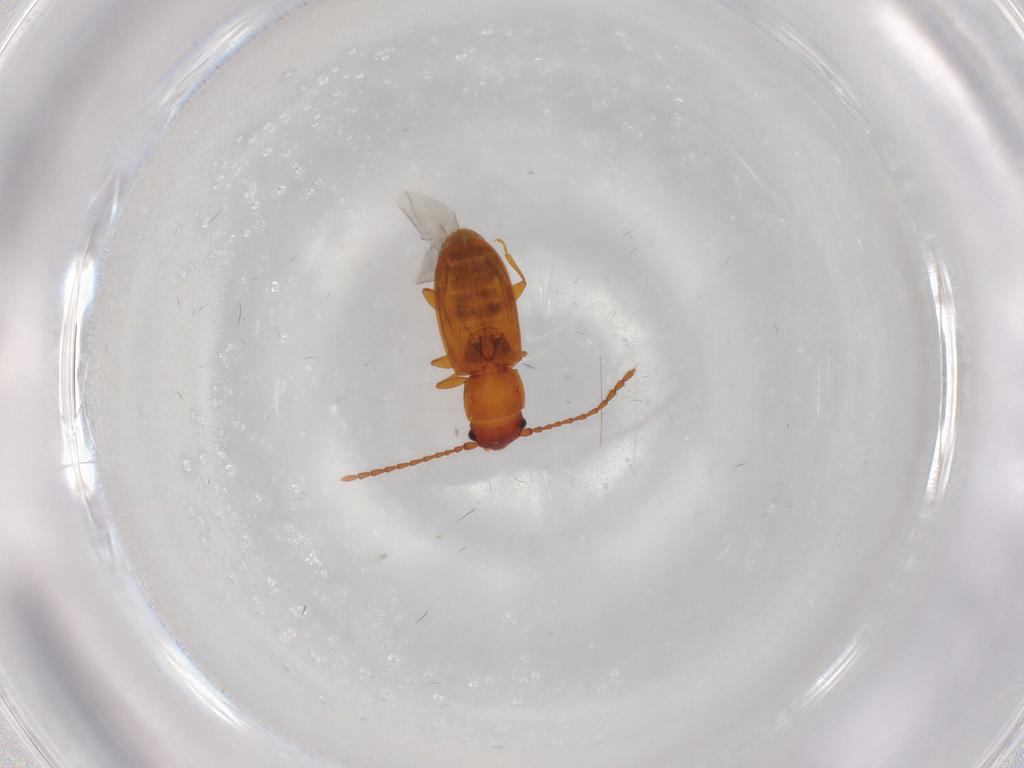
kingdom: Animalia
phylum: Arthropoda
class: Insecta
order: Coleoptera
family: Laemophloeidae
